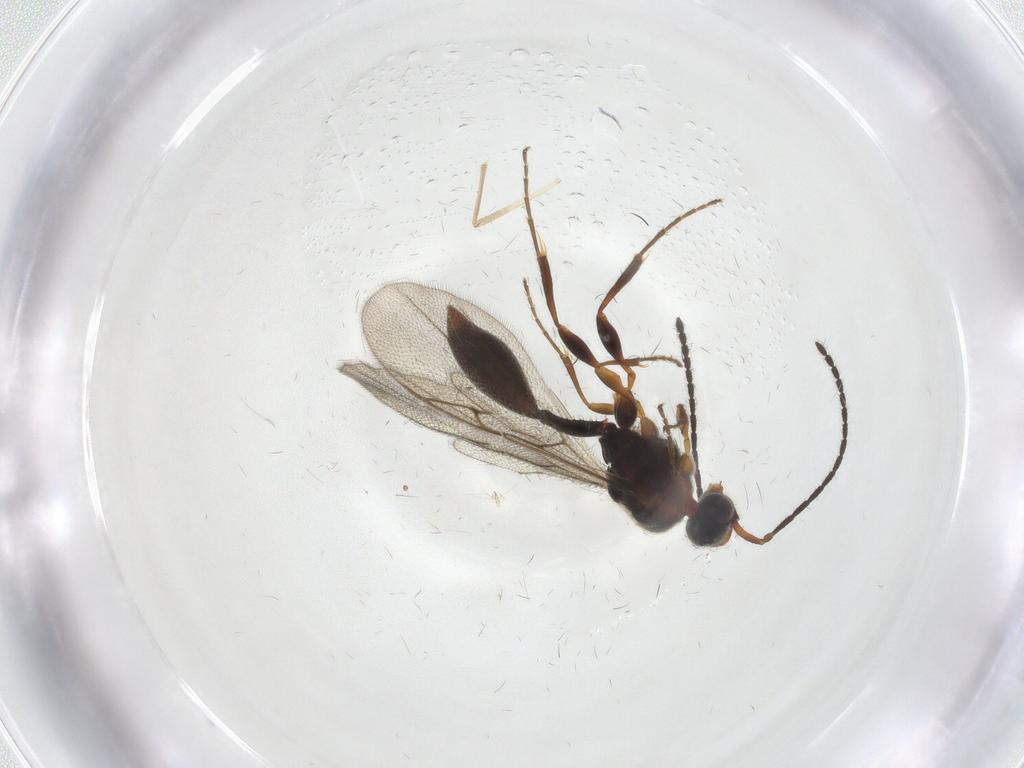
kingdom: Animalia
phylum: Arthropoda
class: Insecta
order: Hymenoptera
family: Diapriidae
